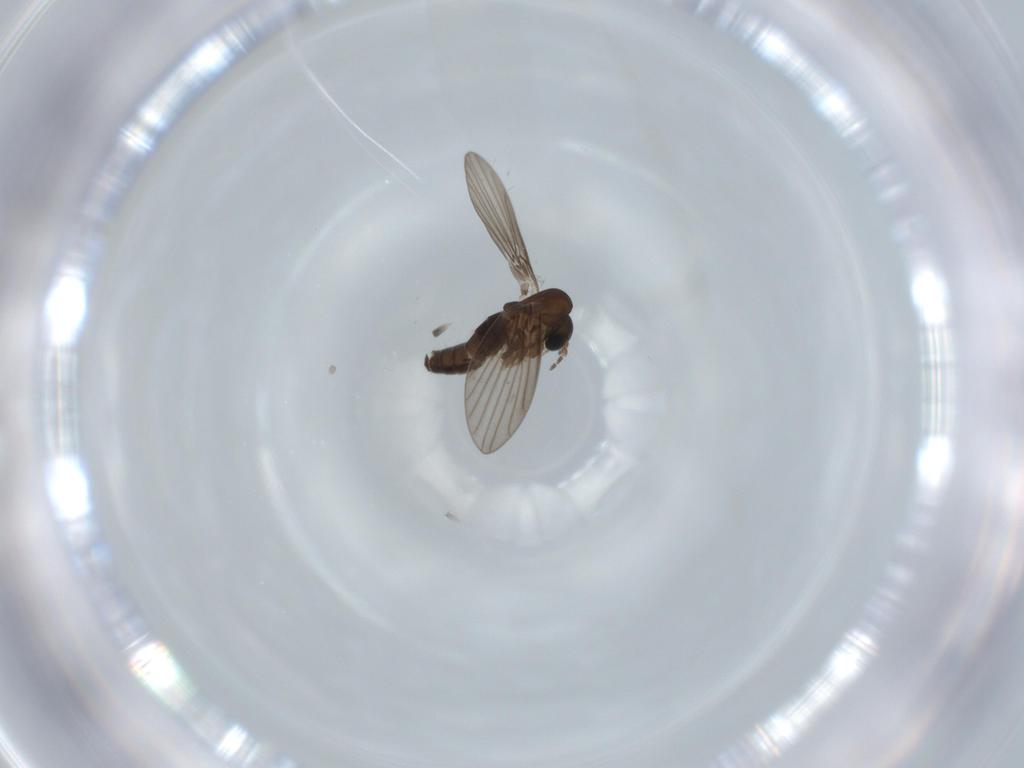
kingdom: Animalia
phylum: Arthropoda
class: Insecta
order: Diptera
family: Psychodidae
